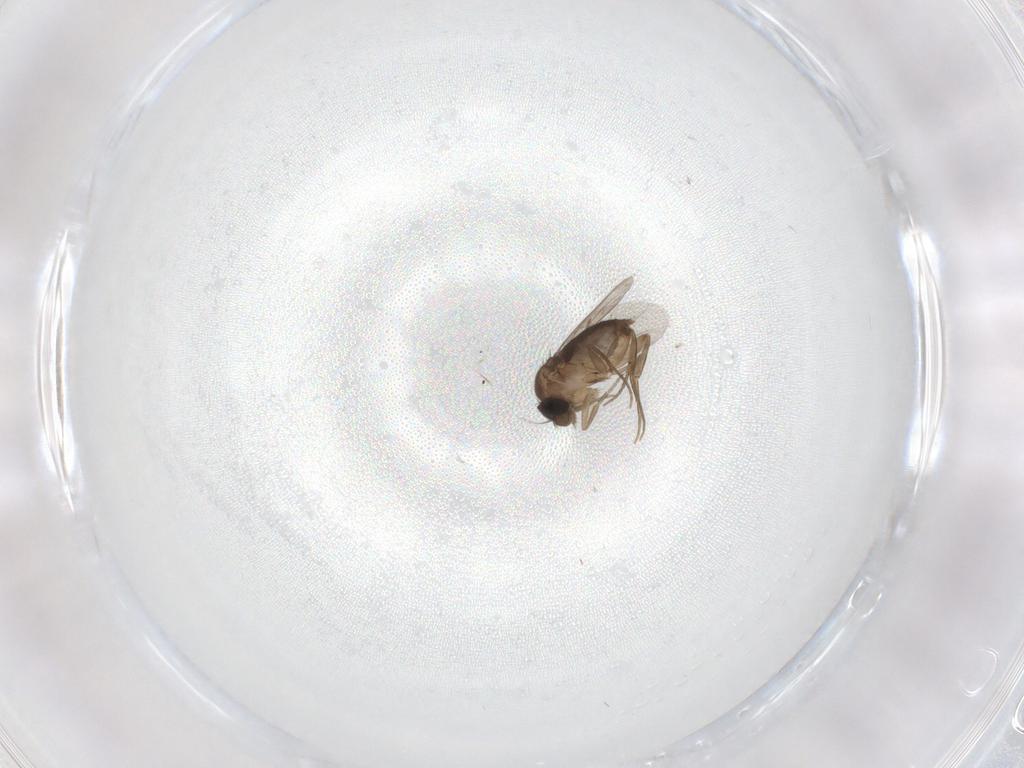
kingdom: Animalia
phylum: Arthropoda
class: Insecta
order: Diptera
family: Phoridae
